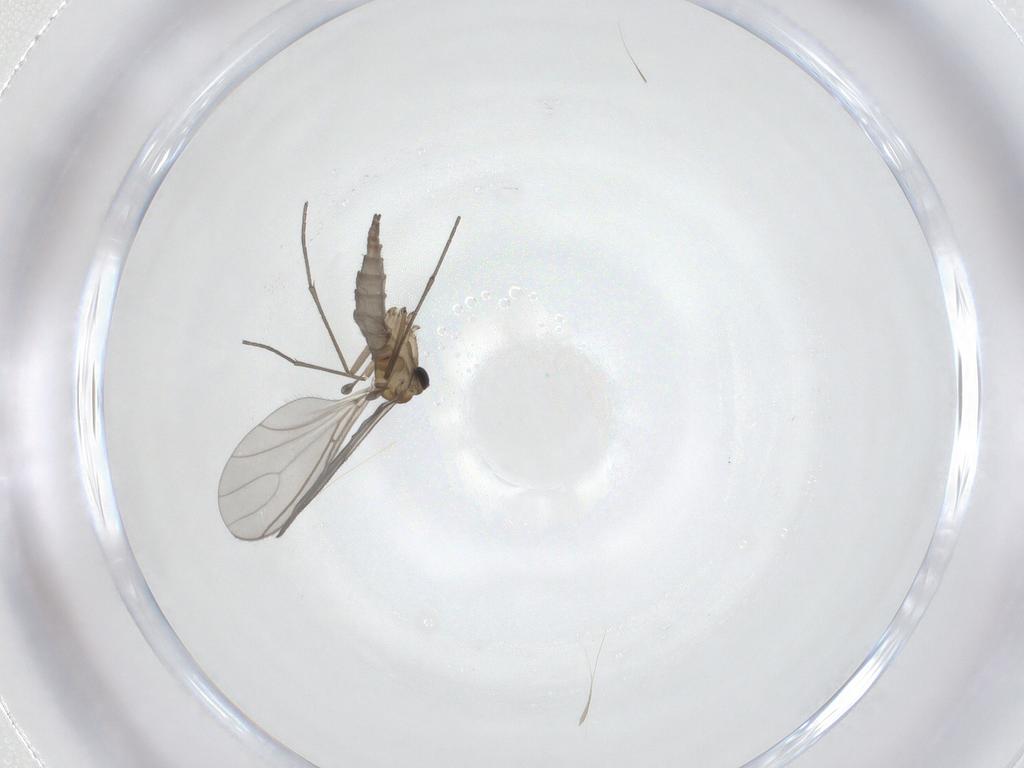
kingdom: Animalia
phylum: Arthropoda
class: Insecta
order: Diptera
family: Sciaridae
